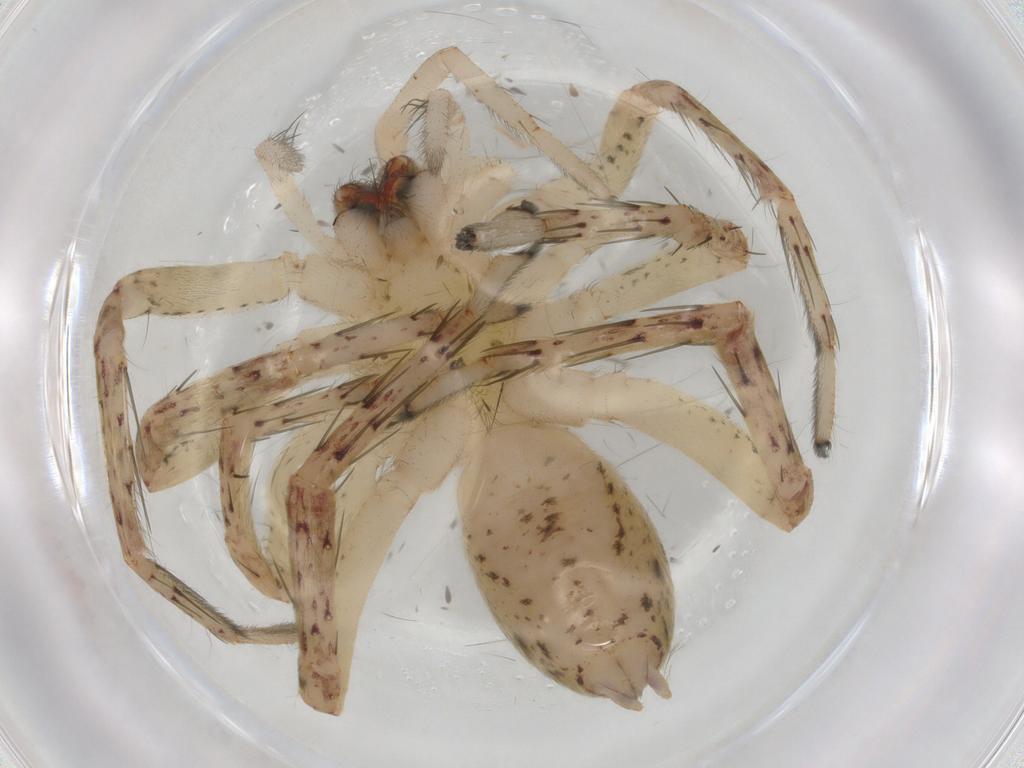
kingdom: Animalia
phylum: Arthropoda
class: Arachnida
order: Araneae
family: Anyphaenidae
